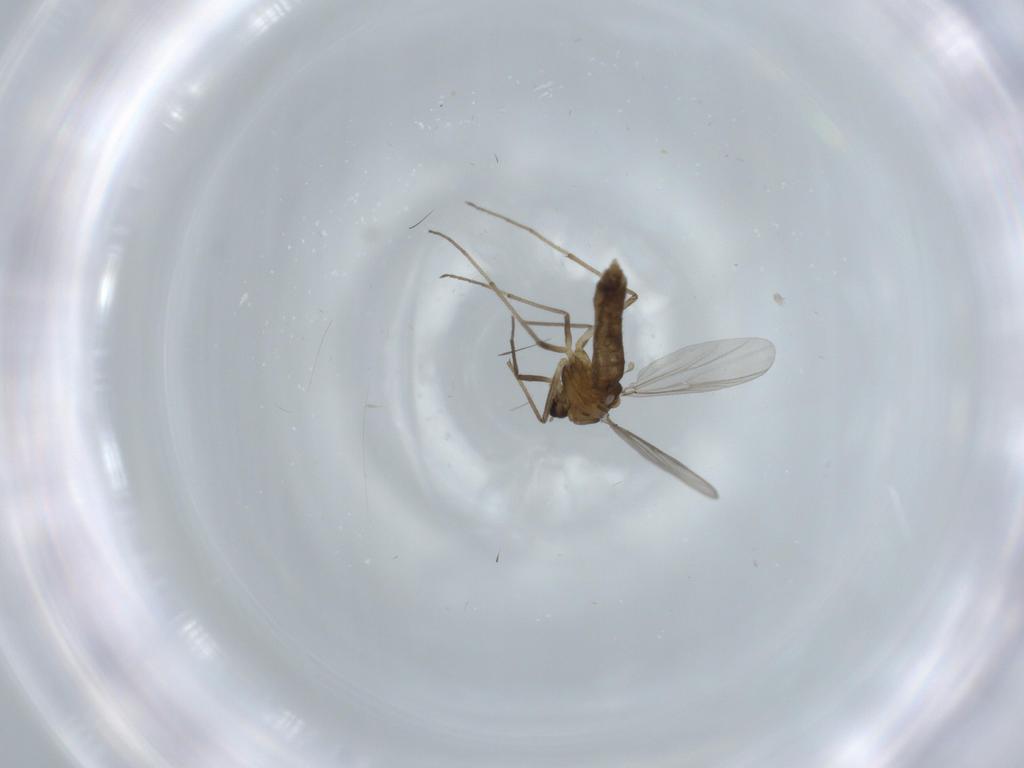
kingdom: Animalia
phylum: Arthropoda
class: Insecta
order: Diptera
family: Chironomidae
